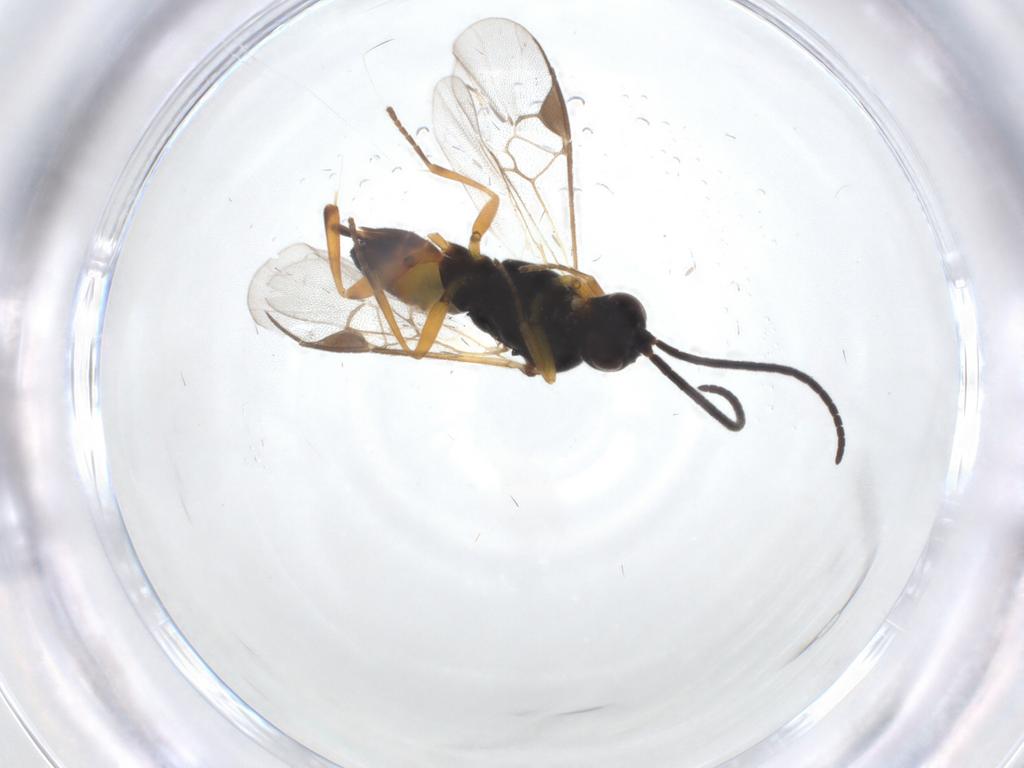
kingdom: Animalia
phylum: Arthropoda
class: Insecta
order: Hymenoptera
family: Braconidae
